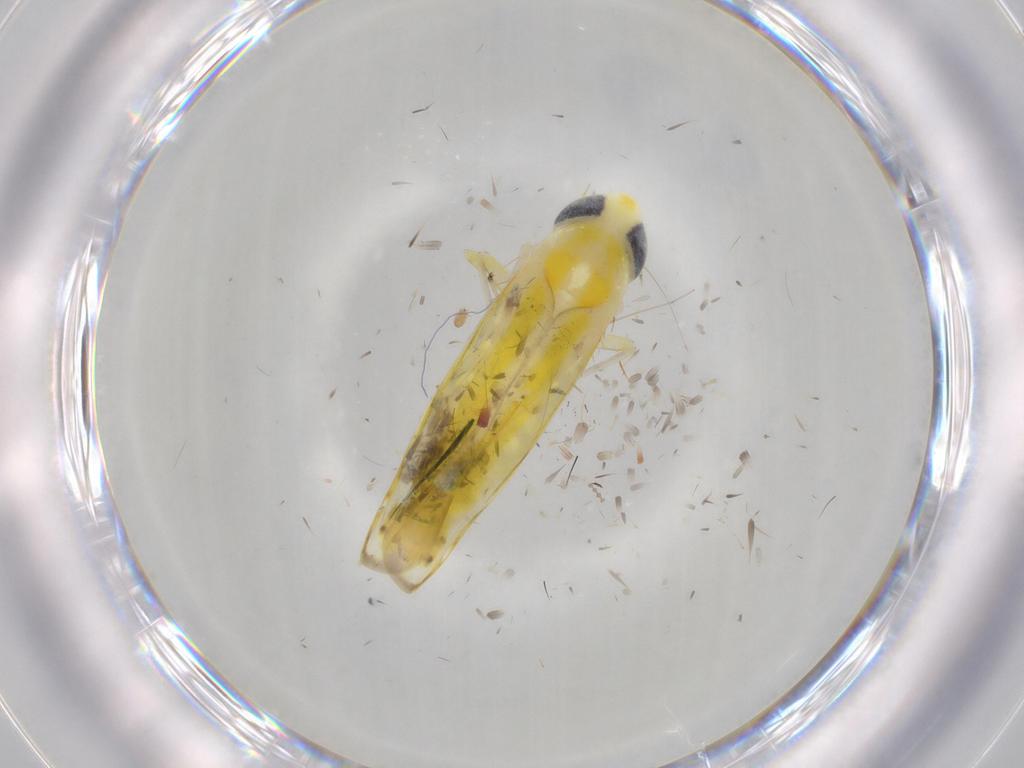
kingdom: Animalia
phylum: Arthropoda
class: Insecta
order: Hemiptera
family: Cicadellidae
